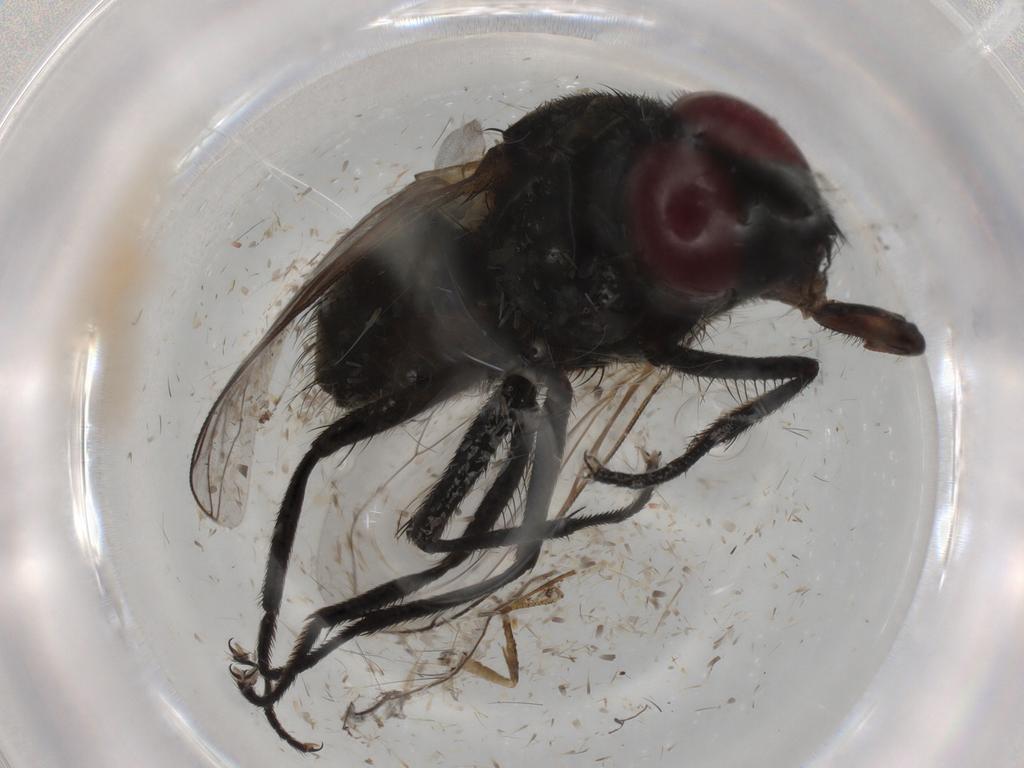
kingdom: Animalia
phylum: Arthropoda
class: Insecta
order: Diptera
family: Muscidae
